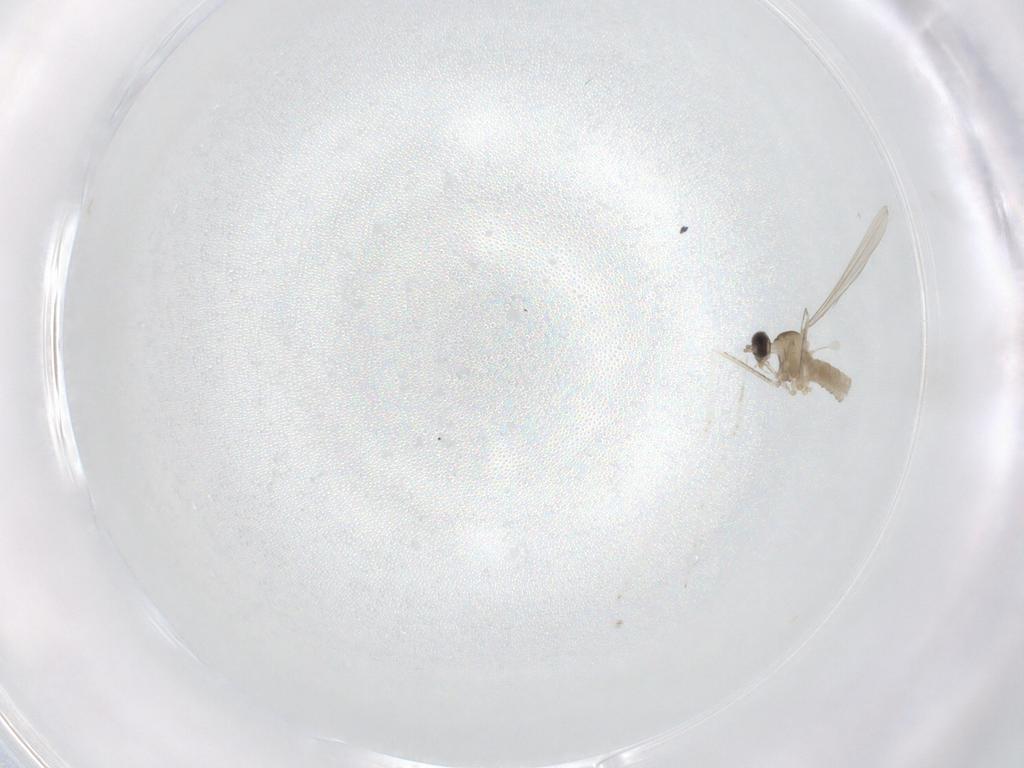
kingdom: Animalia
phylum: Arthropoda
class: Insecta
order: Diptera
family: Cecidomyiidae
